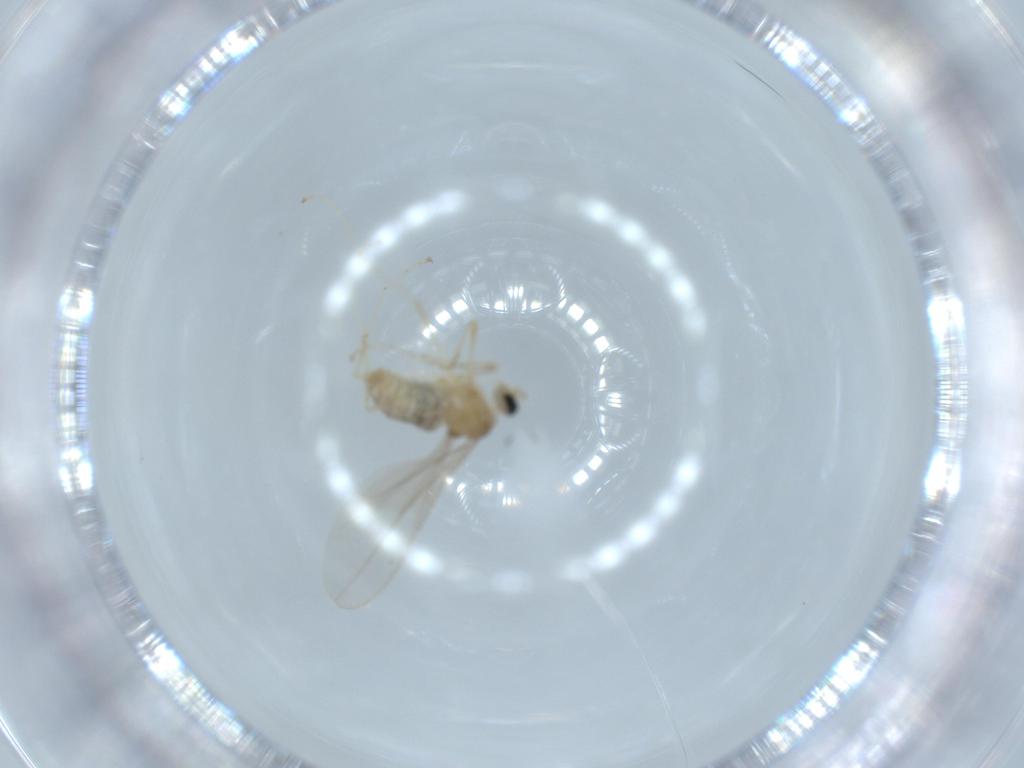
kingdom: Animalia
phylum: Arthropoda
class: Insecta
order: Diptera
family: Cecidomyiidae
